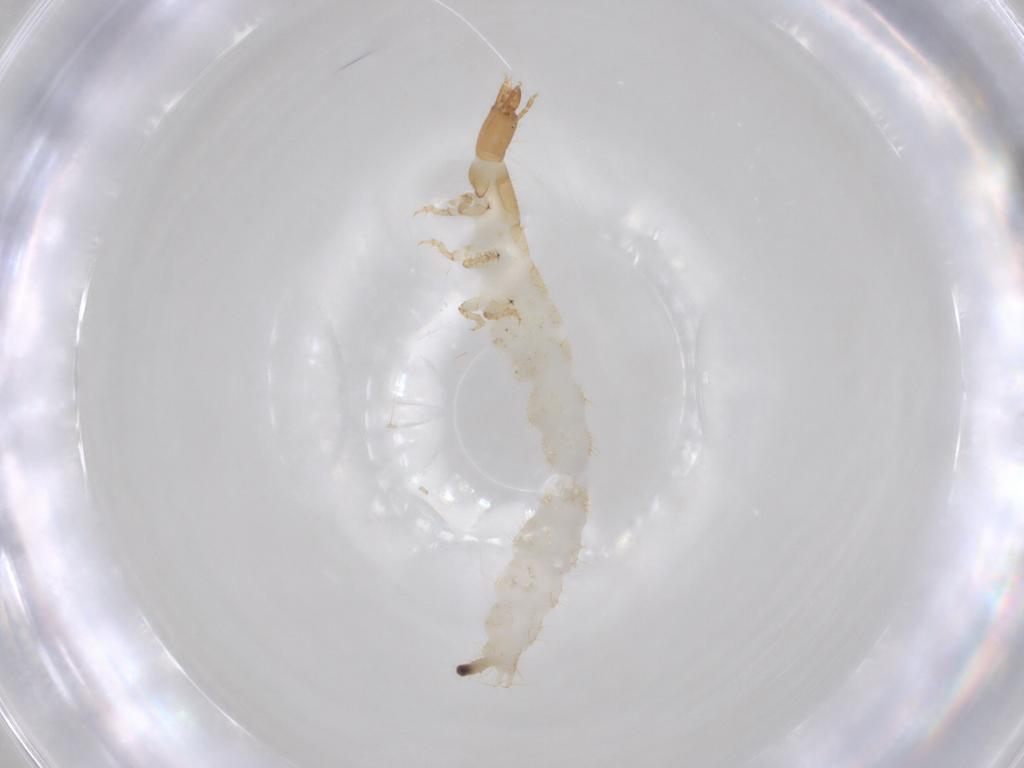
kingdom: Animalia
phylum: Arthropoda
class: Insecta
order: Coleoptera
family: Carabidae
